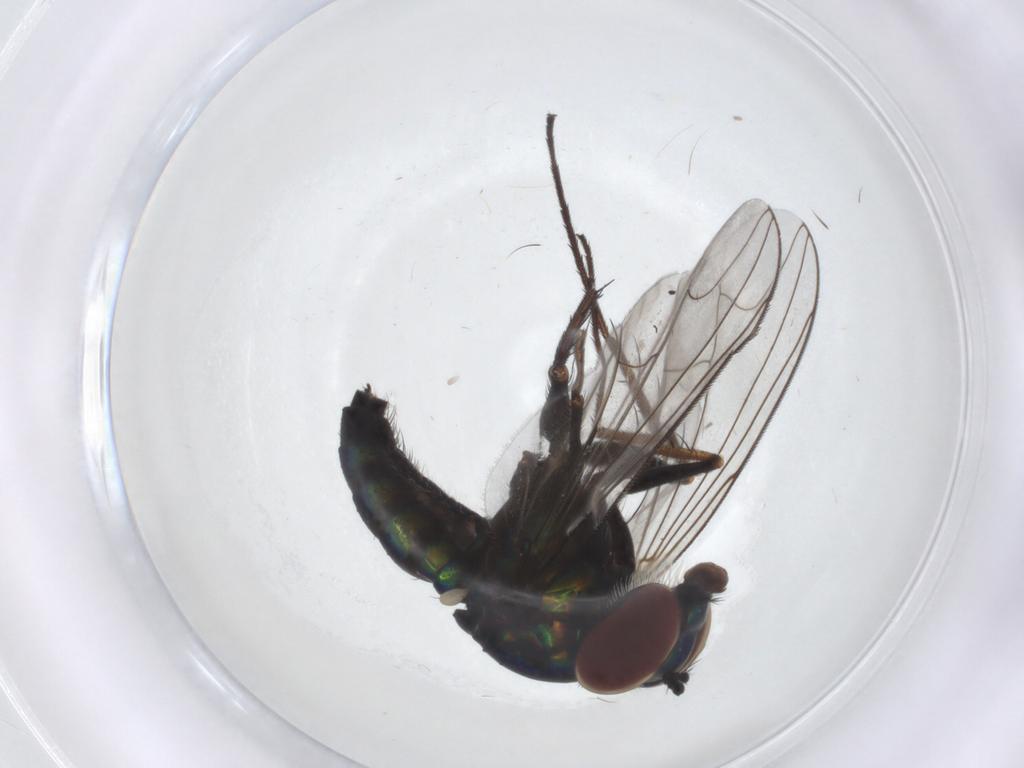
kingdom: Animalia
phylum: Arthropoda
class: Insecta
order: Diptera
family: Dolichopodidae
